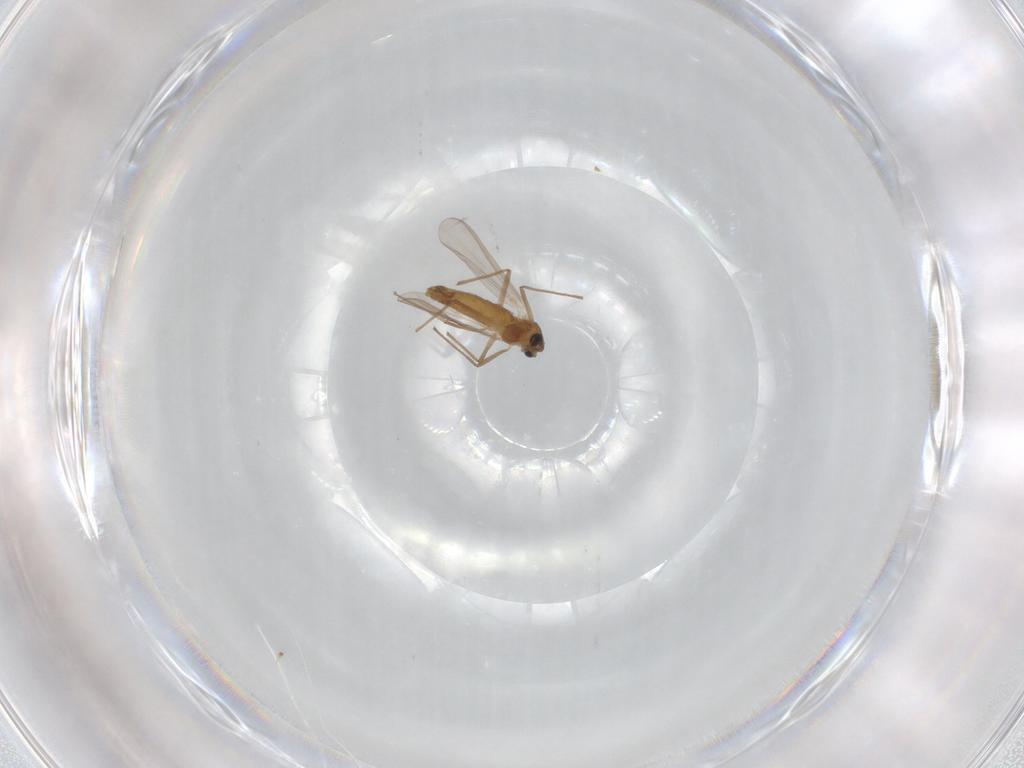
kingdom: Animalia
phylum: Arthropoda
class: Insecta
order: Diptera
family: Chironomidae
